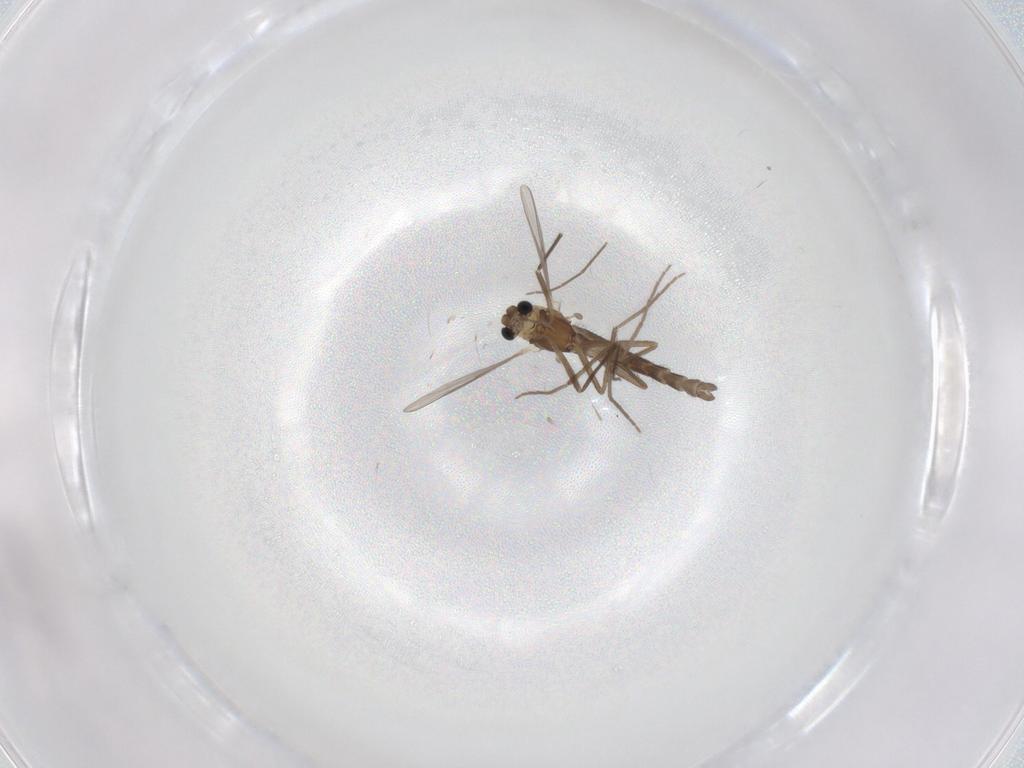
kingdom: Animalia
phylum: Arthropoda
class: Insecta
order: Diptera
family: Chironomidae
